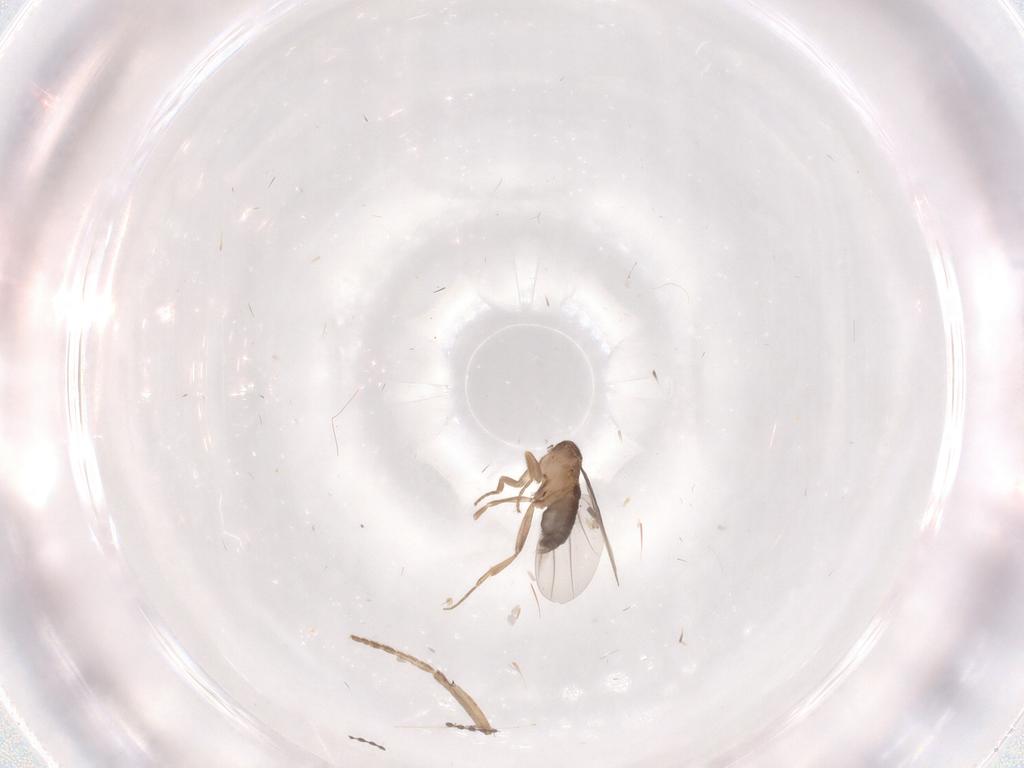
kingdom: Animalia
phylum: Arthropoda
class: Insecta
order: Diptera
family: Phoridae
